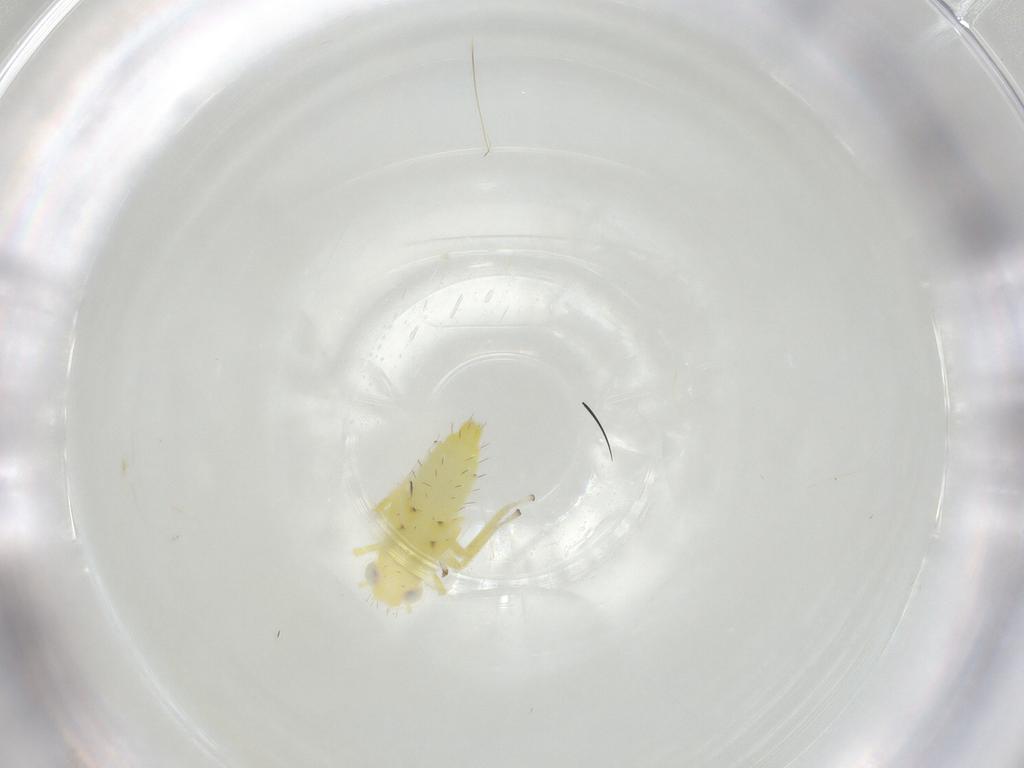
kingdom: Animalia
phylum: Arthropoda
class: Insecta
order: Hemiptera
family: Cicadellidae
